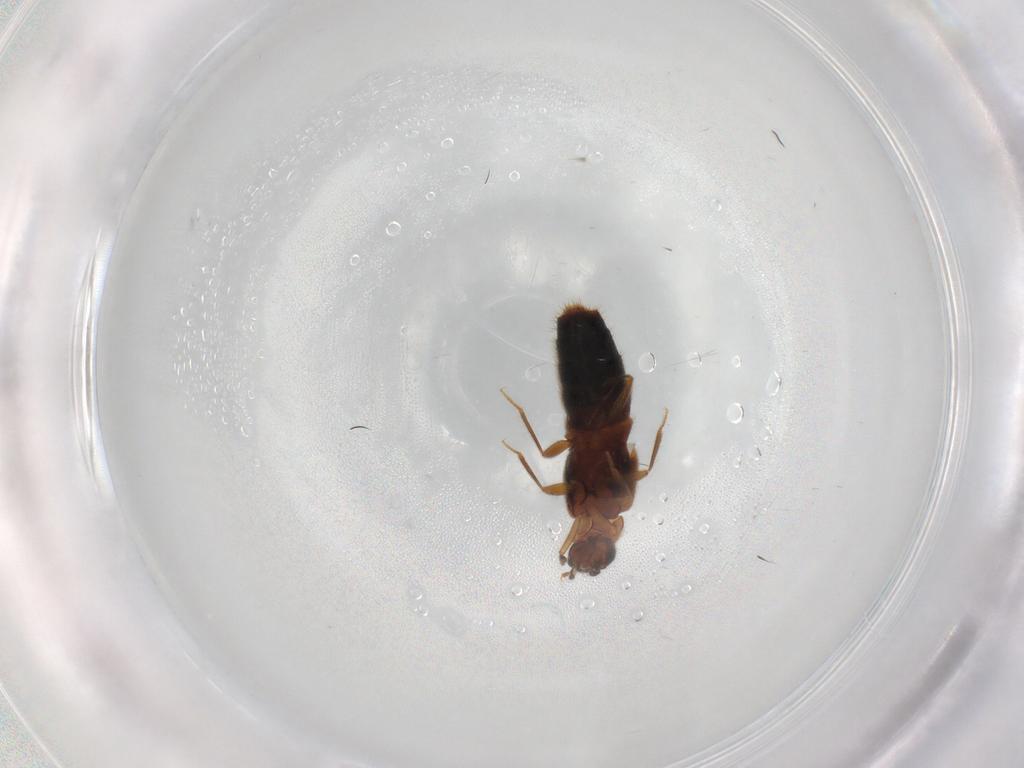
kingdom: Animalia
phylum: Arthropoda
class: Insecta
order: Coleoptera
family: Staphylinidae
